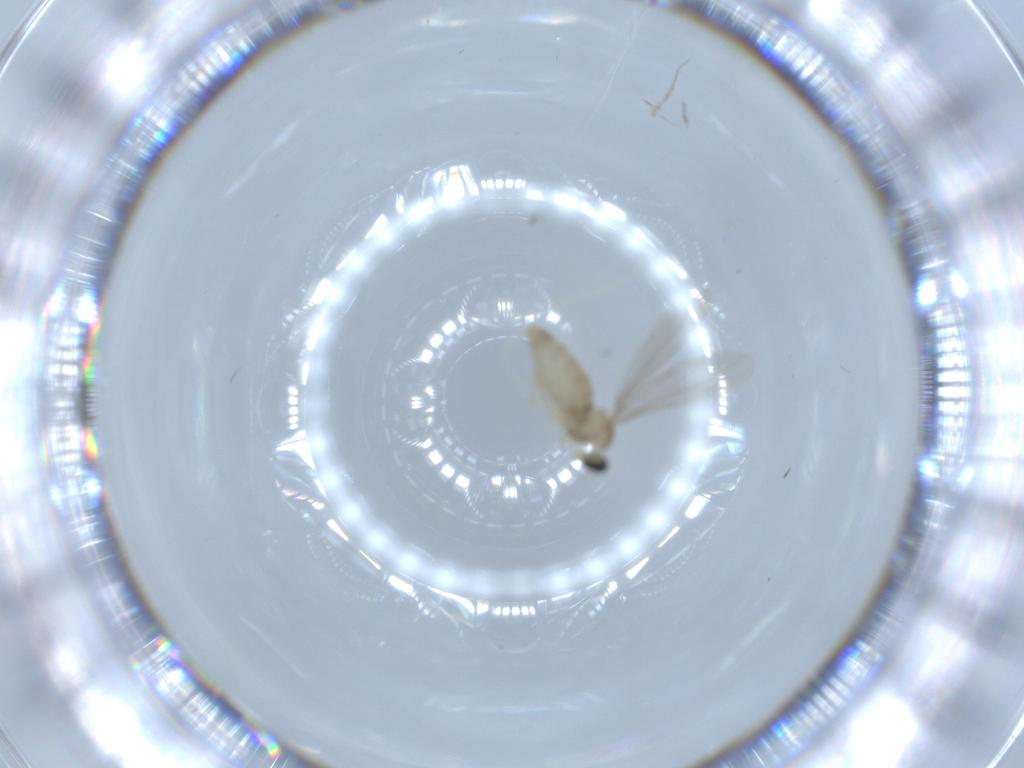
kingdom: Animalia
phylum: Arthropoda
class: Insecta
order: Diptera
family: Cecidomyiidae
